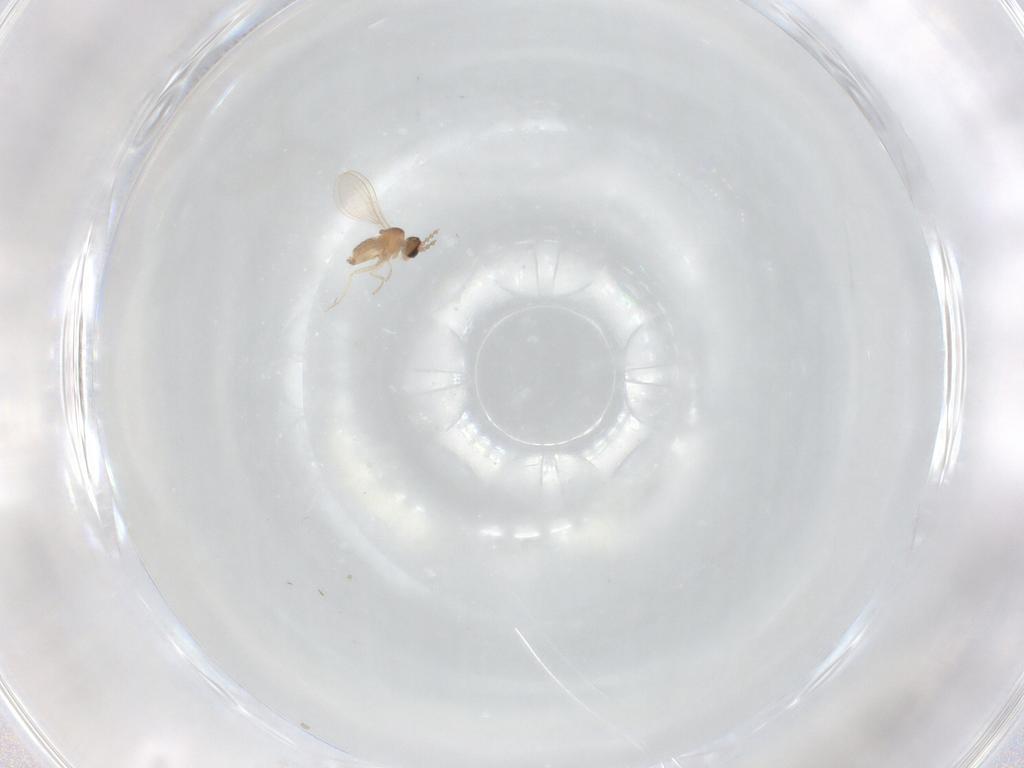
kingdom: Animalia
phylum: Arthropoda
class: Insecta
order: Diptera
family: Cecidomyiidae
